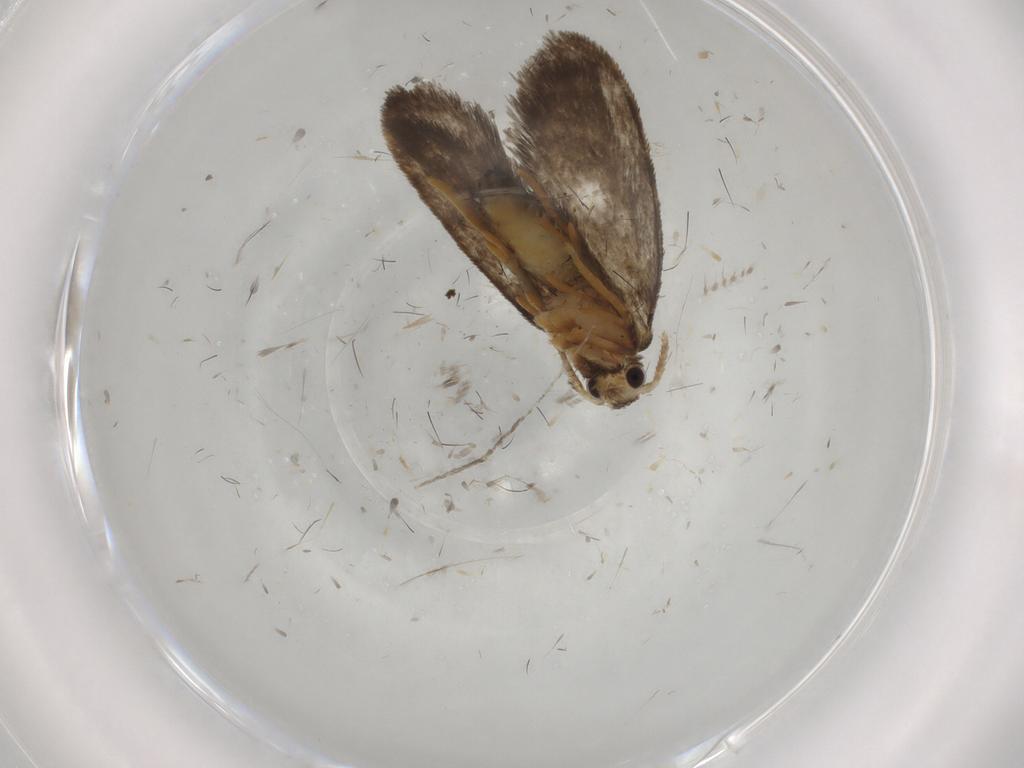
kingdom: Animalia
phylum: Arthropoda
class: Insecta
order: Lepidoptera
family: Psychidae
